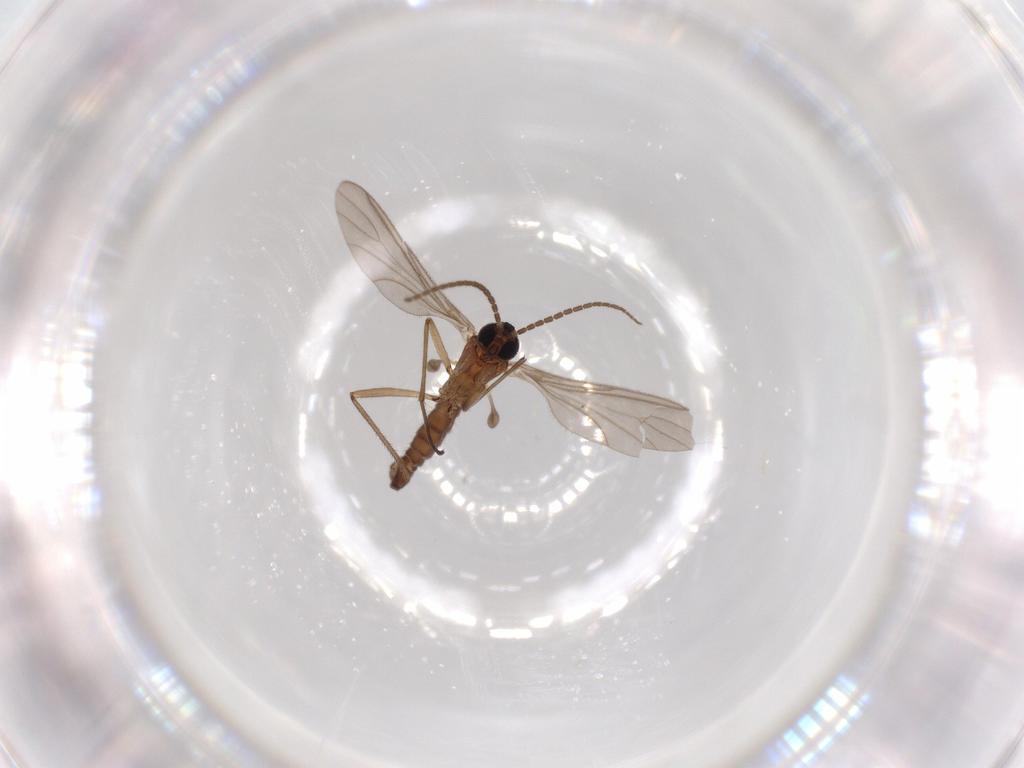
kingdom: Animalia
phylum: Arthropoda
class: Insecta
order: Diptera
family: Sciaridae
